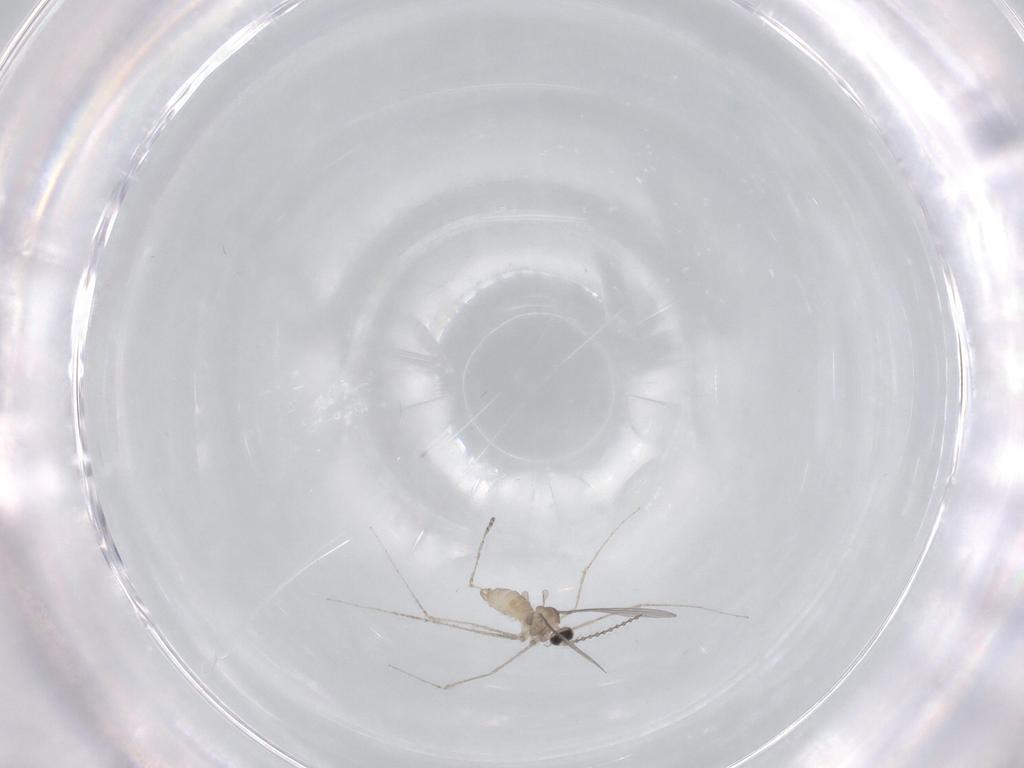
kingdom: Animalia
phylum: Arthropoda
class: Insecta
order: Diptera
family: Cecidomyiidae
